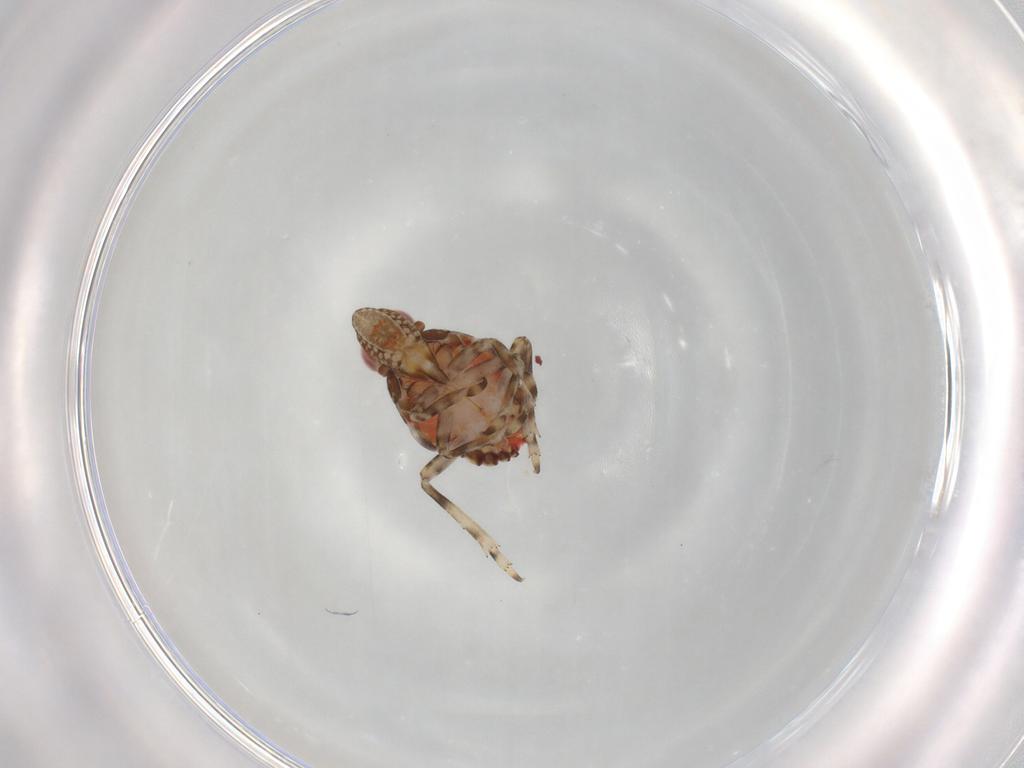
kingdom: Animalia
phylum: Arthropoda
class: Insecta
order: Hemiptera
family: Tropiduchidae
